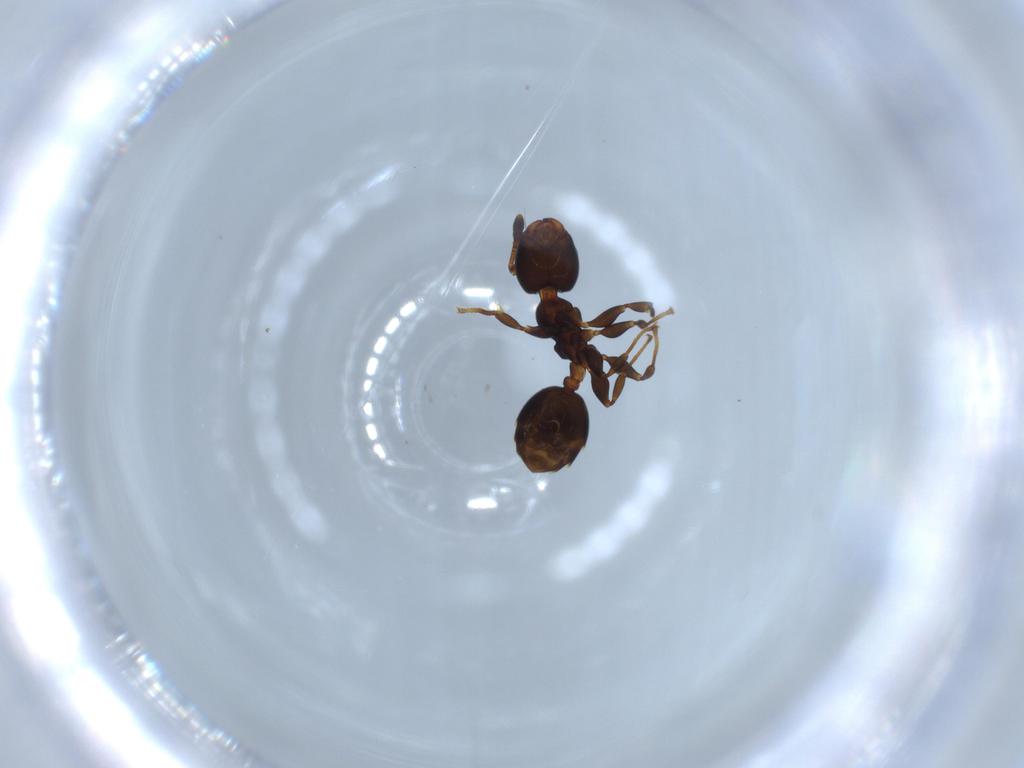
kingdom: Animalia
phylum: Arthropoda
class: Insecta
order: Hymenoptera
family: Formicidae
